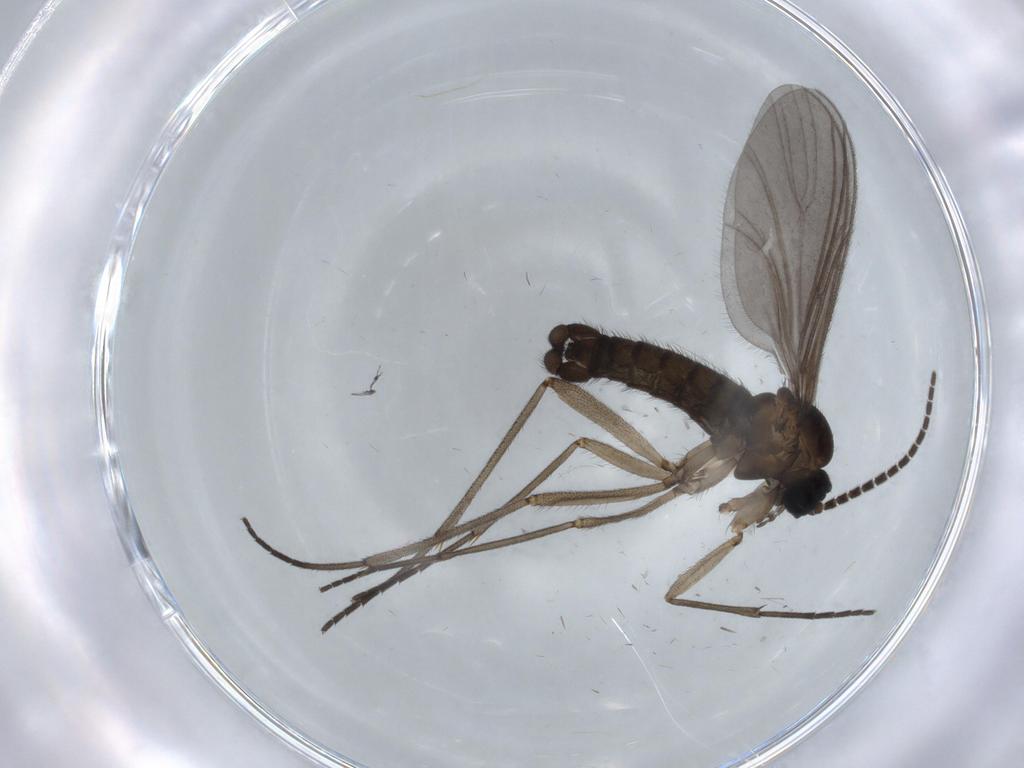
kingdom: Animalia
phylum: Arthropoda
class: Insecta
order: Diptera
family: Sciaridae
